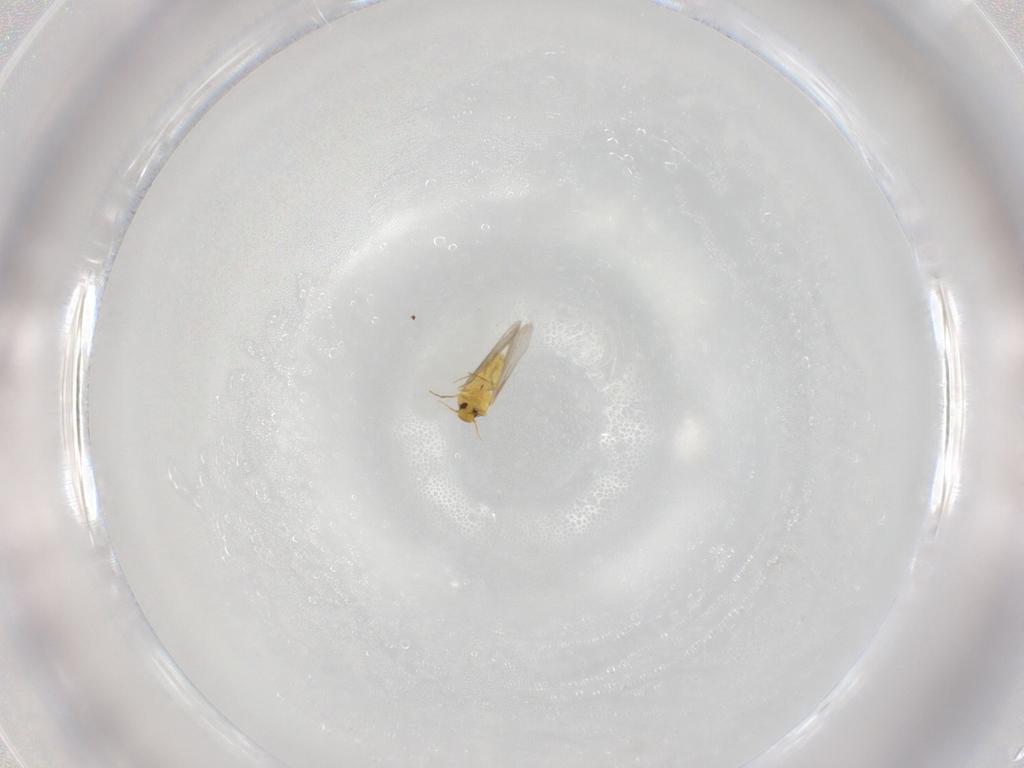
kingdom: Animalia
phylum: Arthropoda
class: Insecta
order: Hemiptera
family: Aleyrodidae
